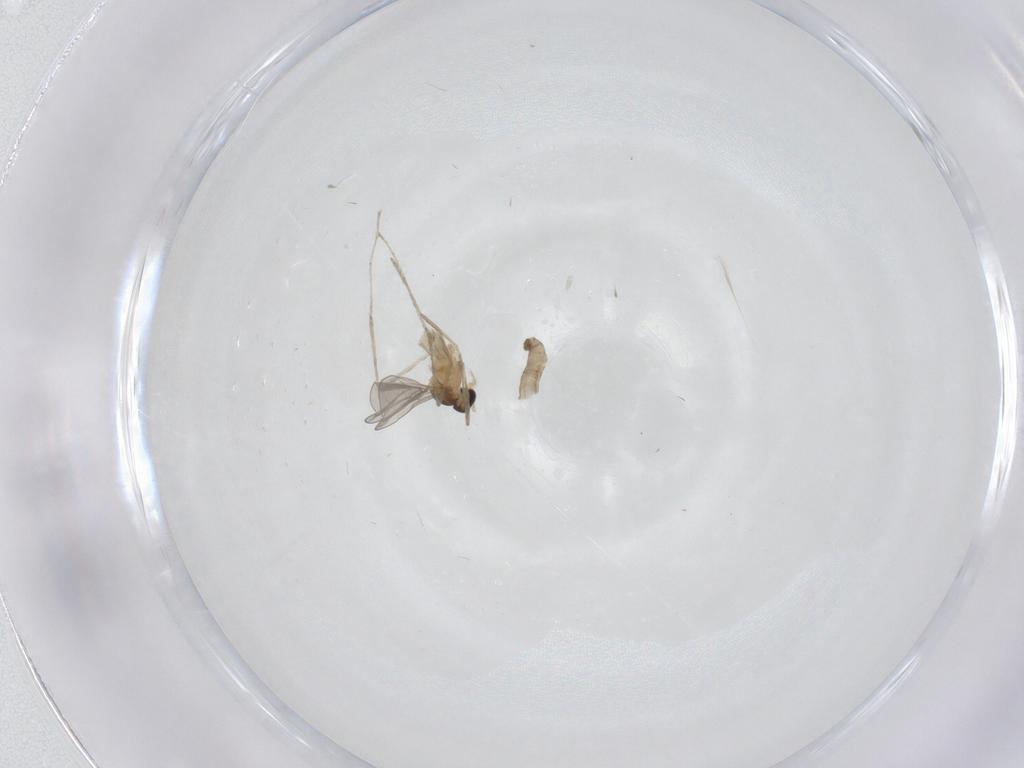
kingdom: Animalia
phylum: Arthropoda
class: Insecta
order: Diptera
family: Cecidomyiidae
